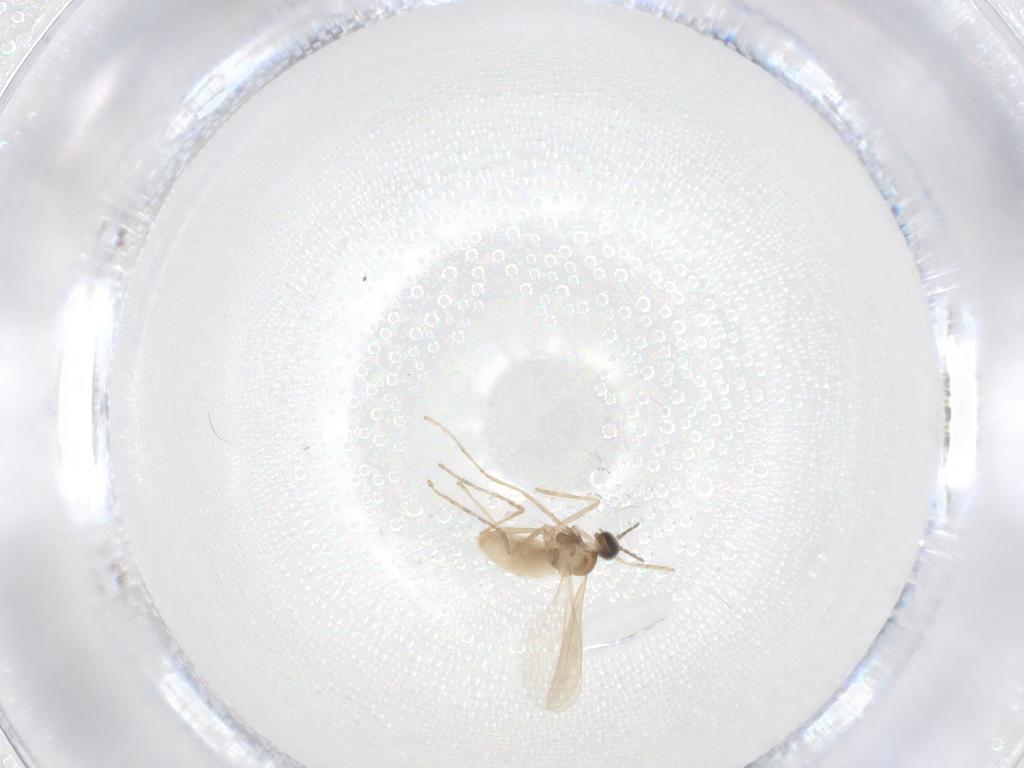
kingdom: Animalia
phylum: Arthropoda
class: Insecta
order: Diptera
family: Cecidomyiidae
